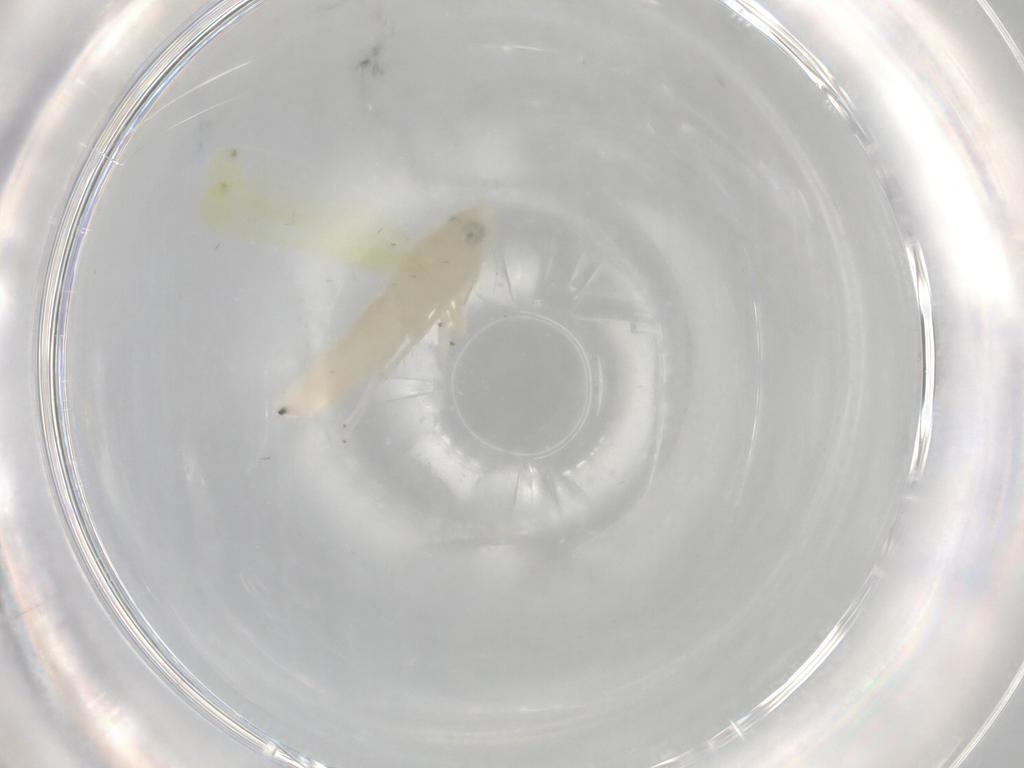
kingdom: Animalia
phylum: Arthropoda
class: Insecta
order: Hemiptera
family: Cicadellidae
